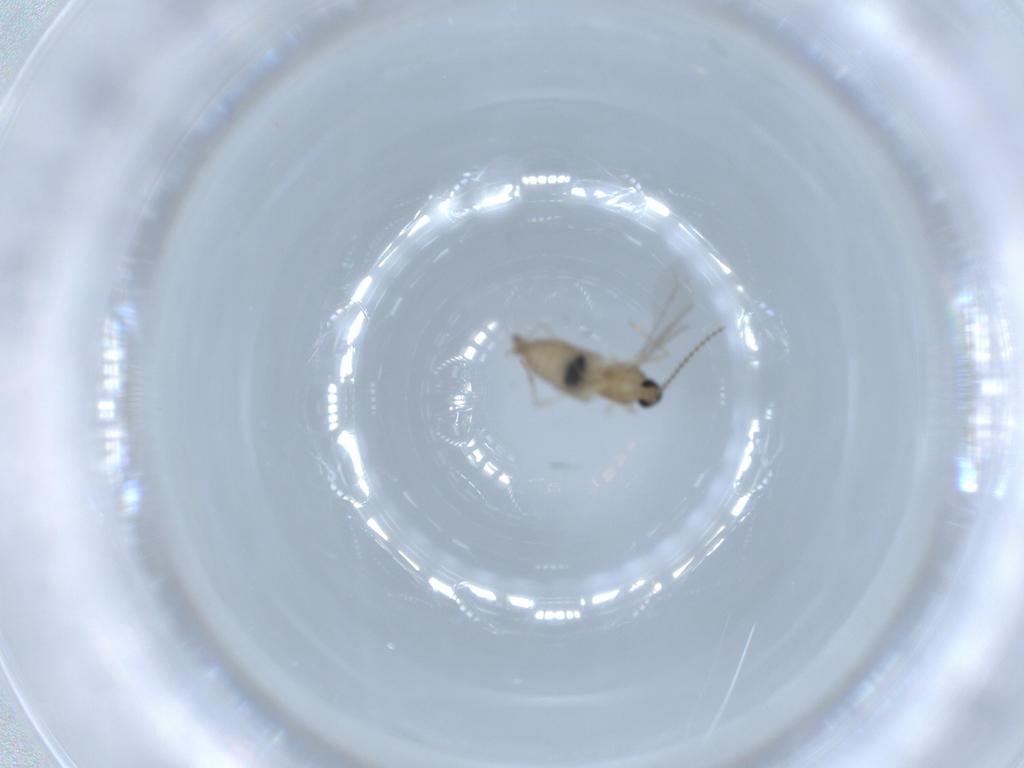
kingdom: Animalia
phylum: Arthropoda
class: Insecta
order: Diptera
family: Cecidomyiidae
